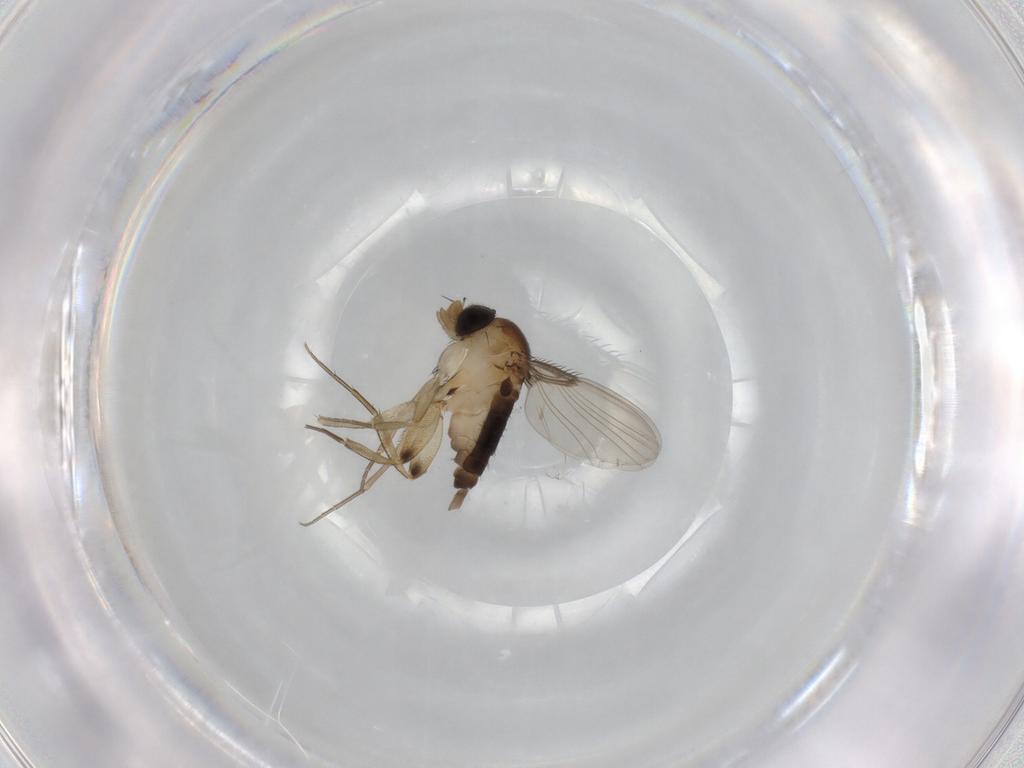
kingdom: Animalia
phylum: Arthropoda
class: Insecta
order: Diptera
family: Phoridae
